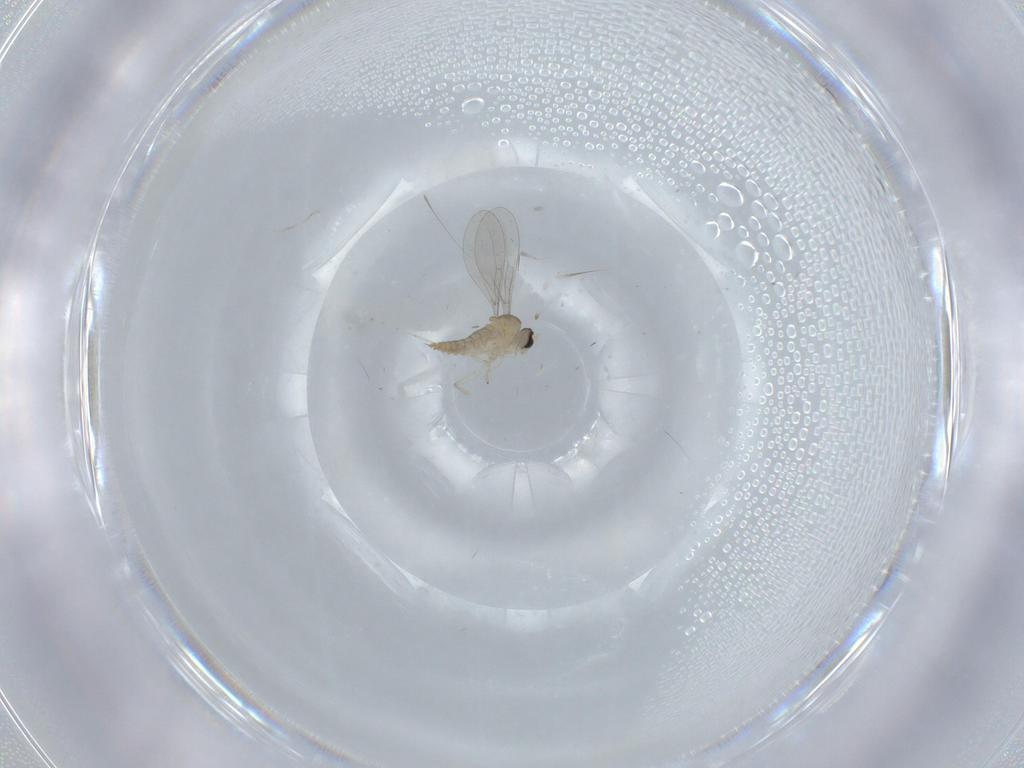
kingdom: Animalia
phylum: Arthropoda
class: Insecta
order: Diptera
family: Cecidomyiidae
